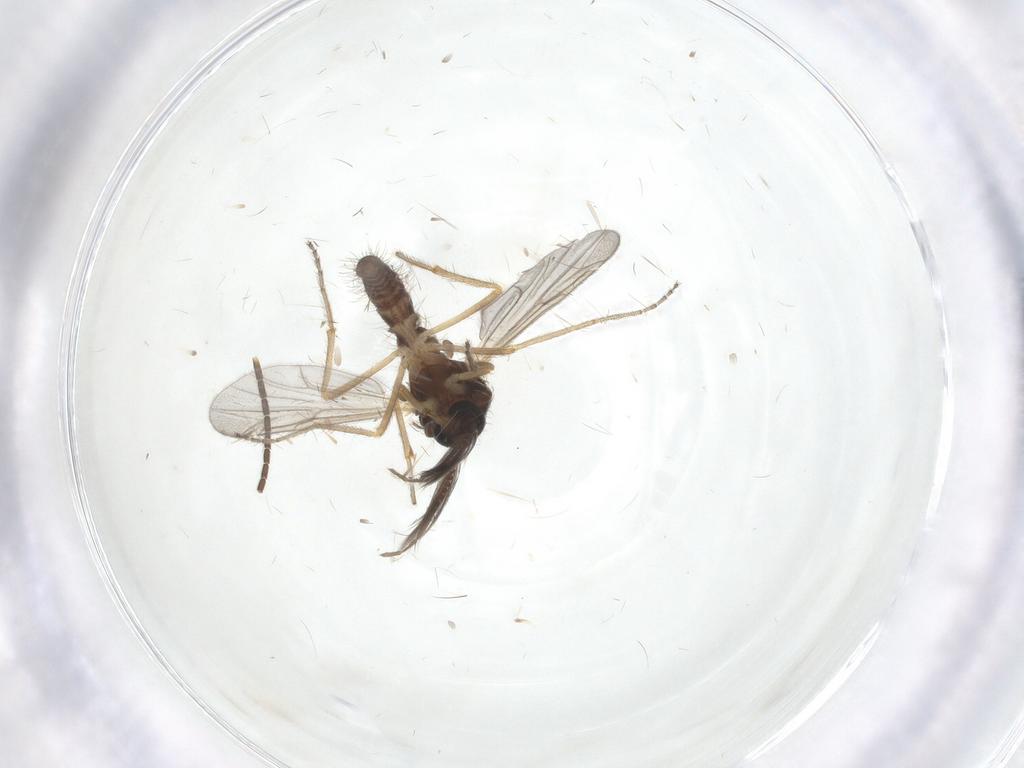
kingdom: Animalia
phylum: Arthropoda
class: Insecta
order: Diptera
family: Ceratopogonidae
